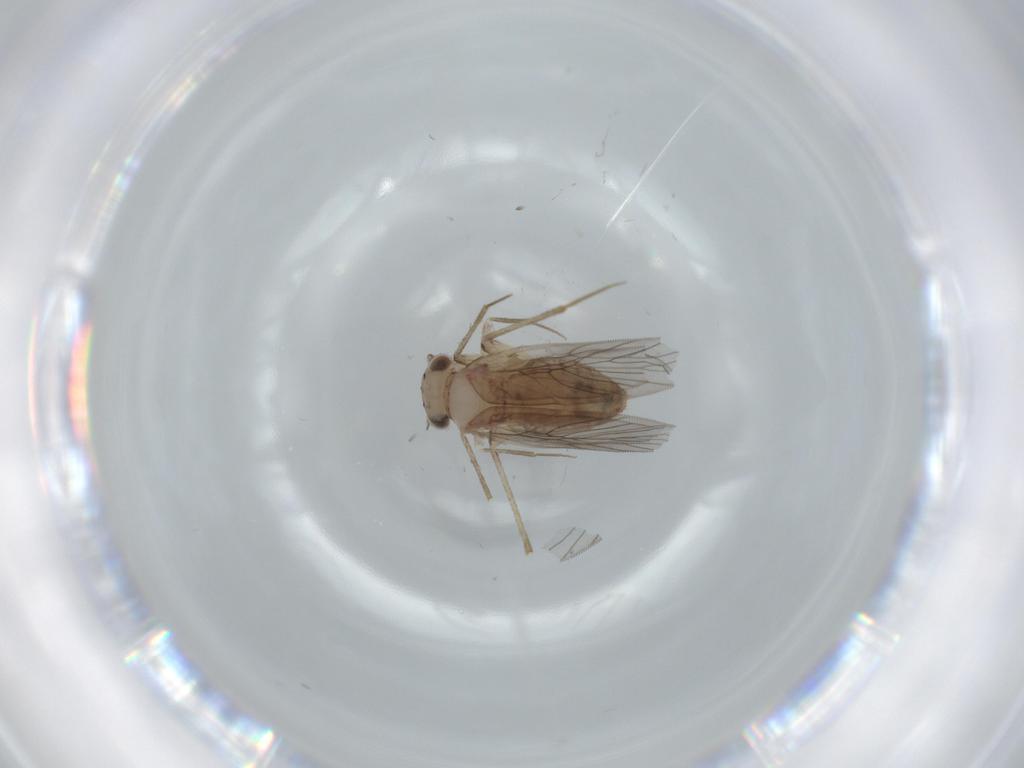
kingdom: Animalia
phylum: Arthropoda
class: Insecta
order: Psocodea
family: Lepidopsocidae
